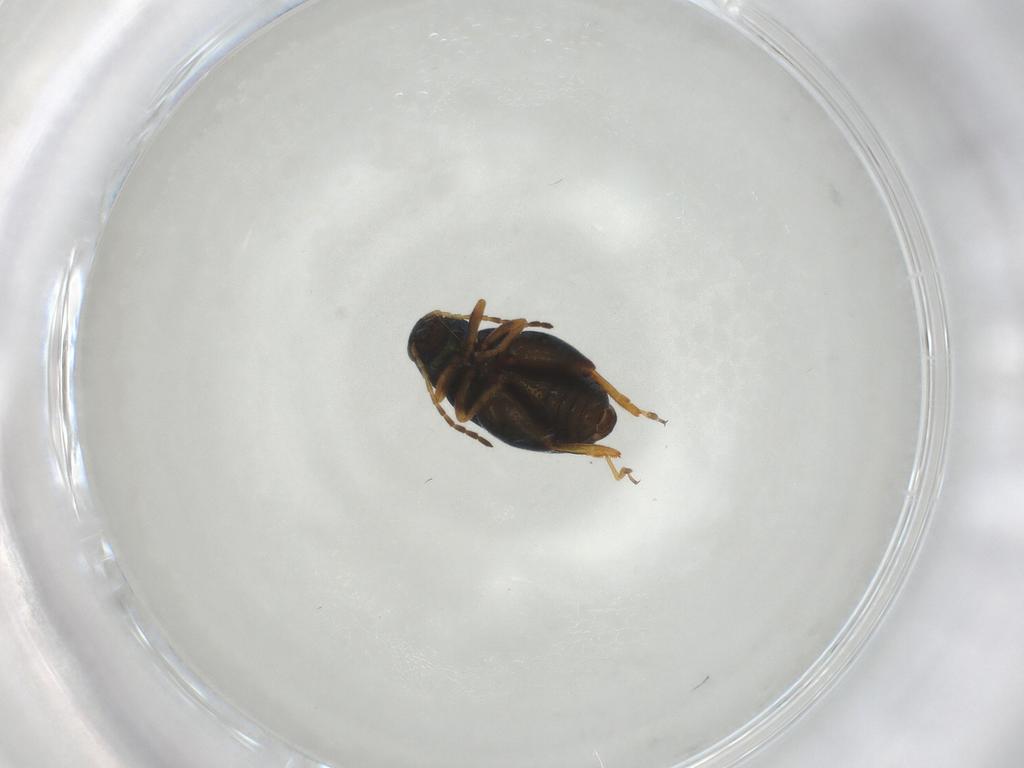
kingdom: Animalia
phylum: Arthropoda
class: Insecta
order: Coleoptera
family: Chrysomelidae
